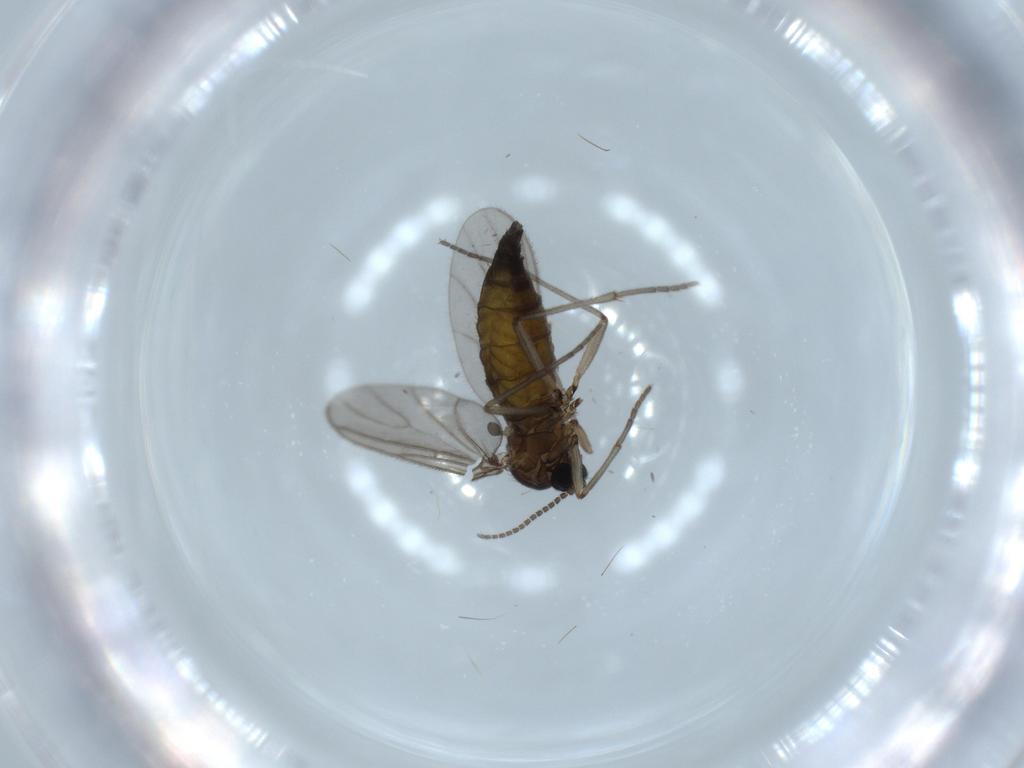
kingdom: Animalia
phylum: Arthropoda
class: Insecta
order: Diptera
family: Sciaridae
